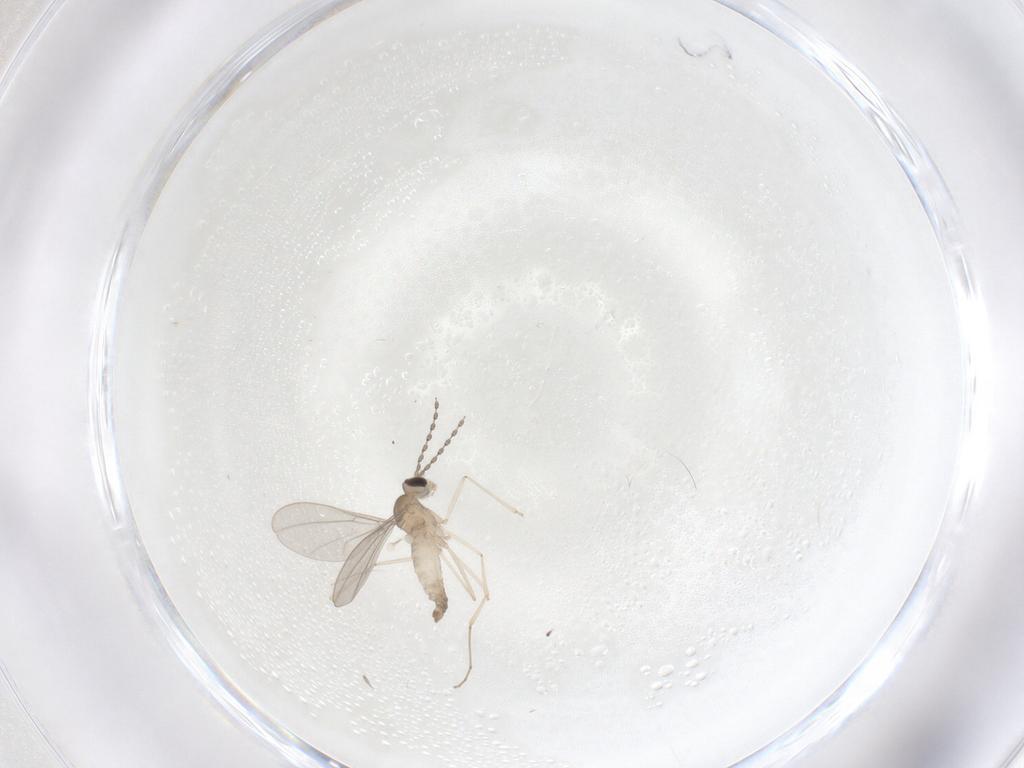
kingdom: Animalia
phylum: Arthropoda
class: Insecta
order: Diptera
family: Cecidomyiidae
